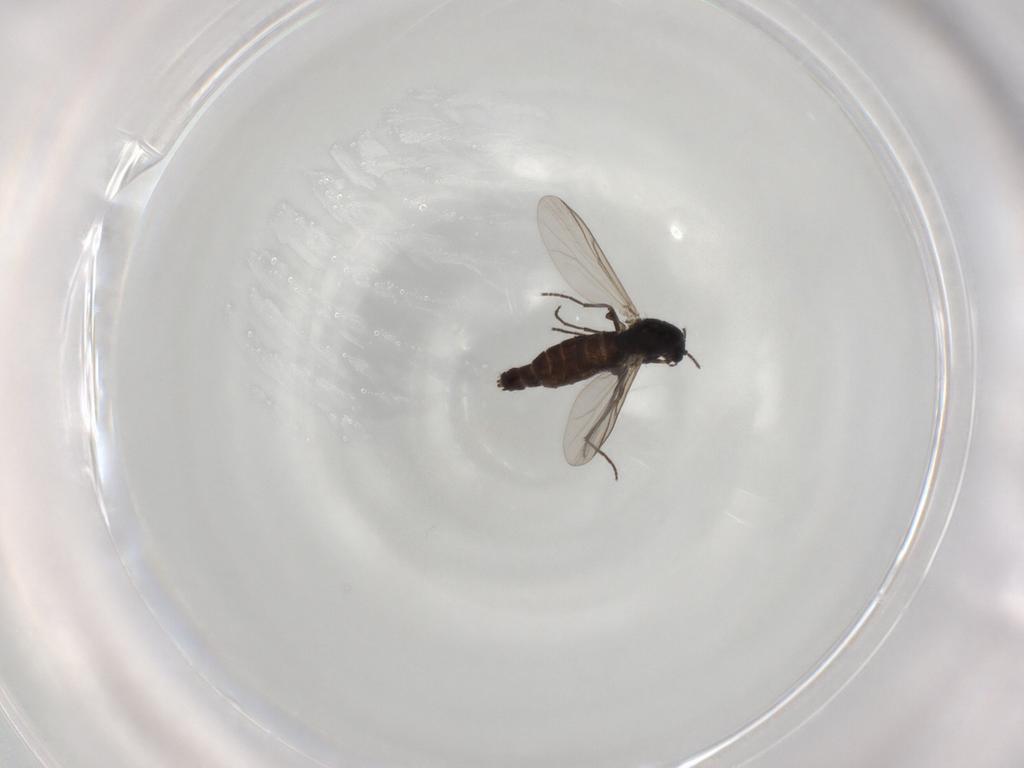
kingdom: Animalia
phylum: Arthropoda
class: Insecta
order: Diptera
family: Chironomidae
